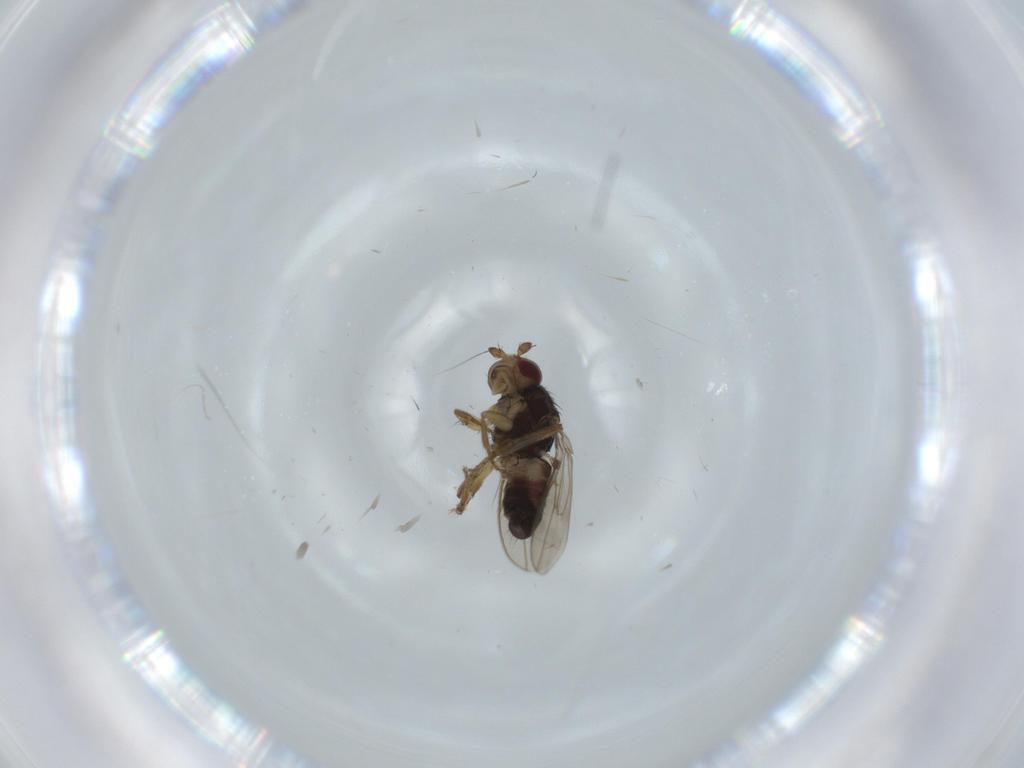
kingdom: Animalia
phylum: Arthropoda
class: Insecta
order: Diptera
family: Sphaeroceridae
